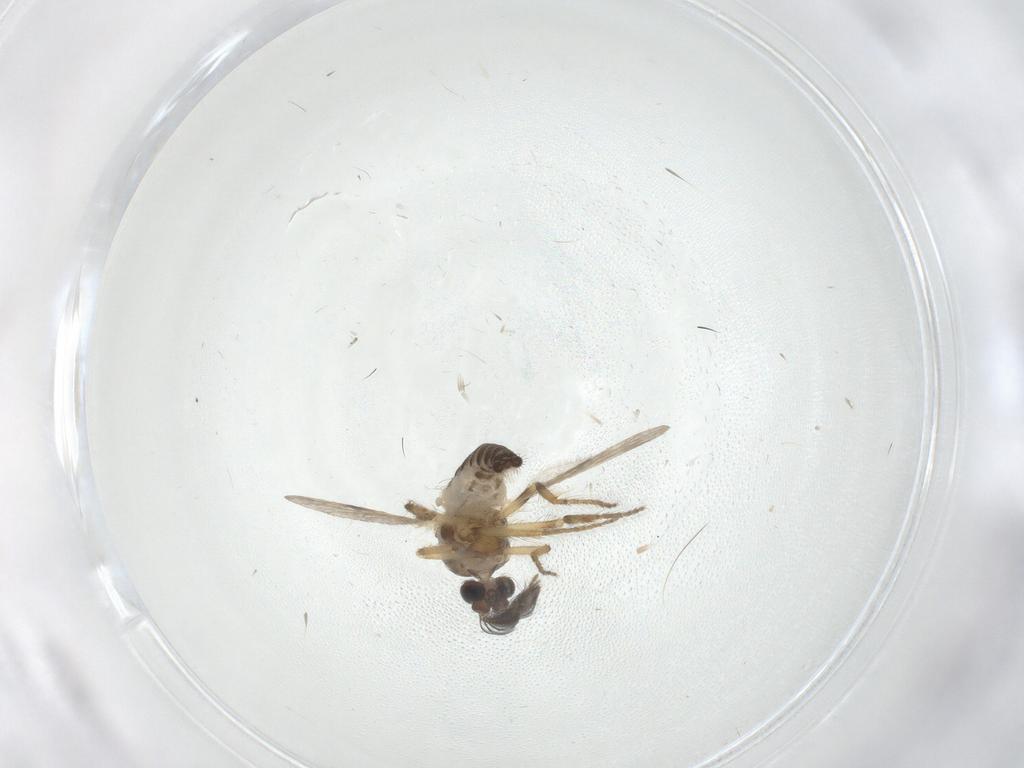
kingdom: Animalia
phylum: Arthropoda
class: Insecta
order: Diptera
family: Ceratopogonidae
